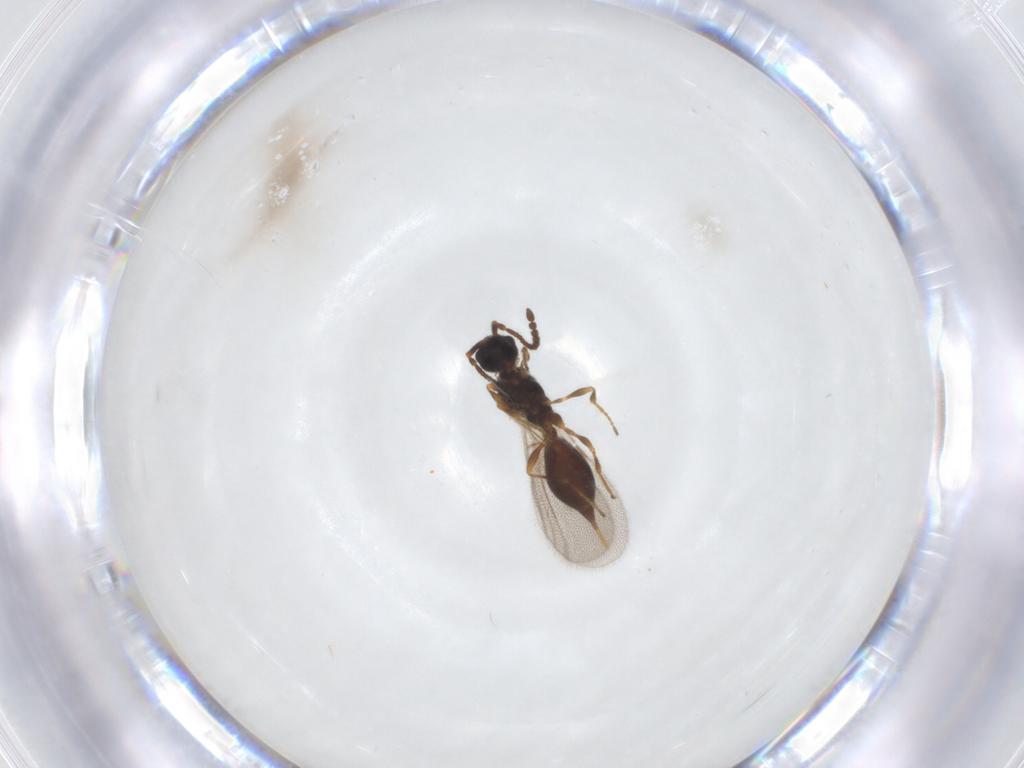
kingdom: Animalia
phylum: Arthropoda
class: Insecta
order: Hymenoptera
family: Diapriidae
